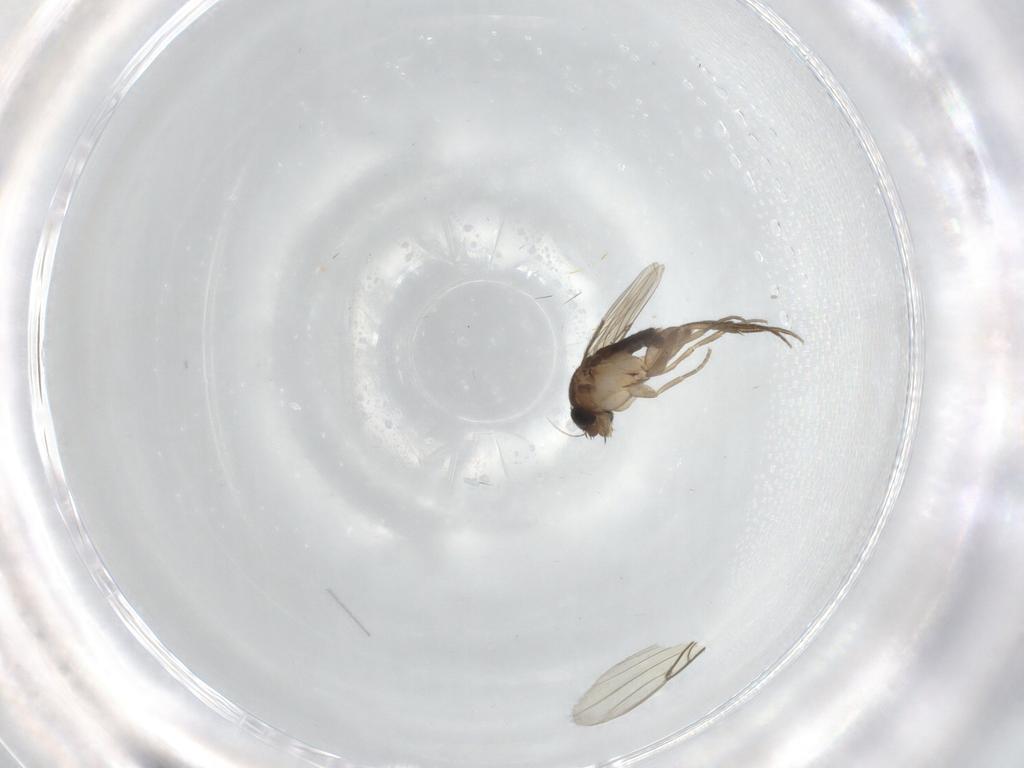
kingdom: Animalia
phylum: Arthropoda
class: Insecta
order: Diptera
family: Phoridae
